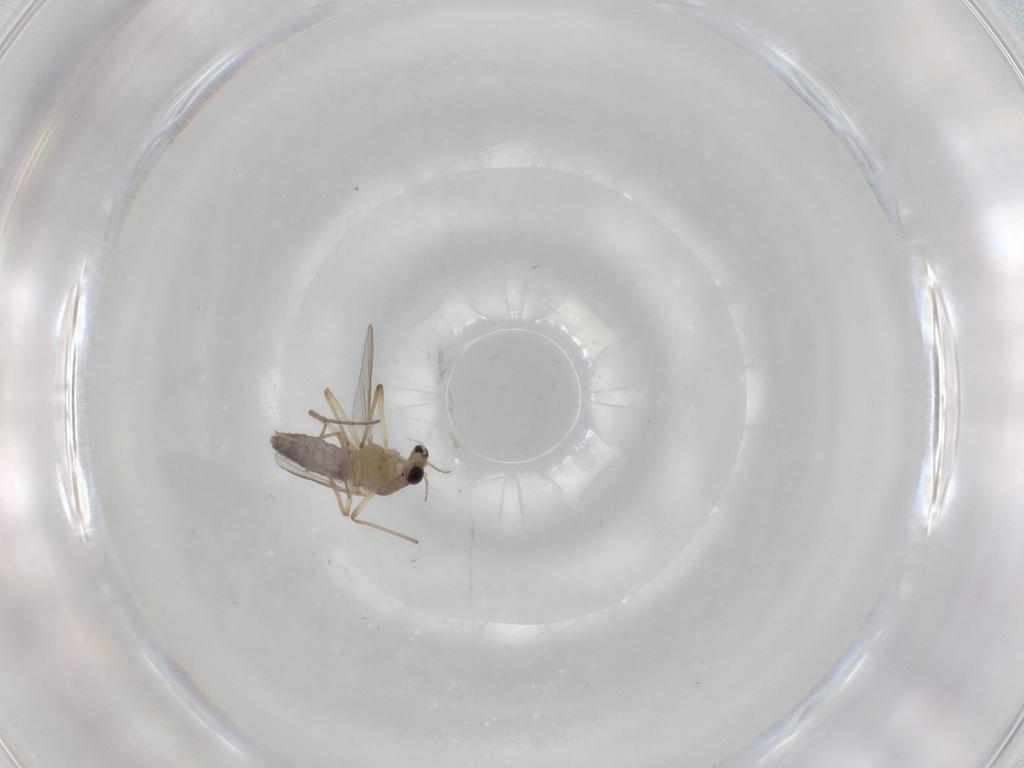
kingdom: Animalia
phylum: Arthropoda
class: Insecta
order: Diptera
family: Chironomidae
